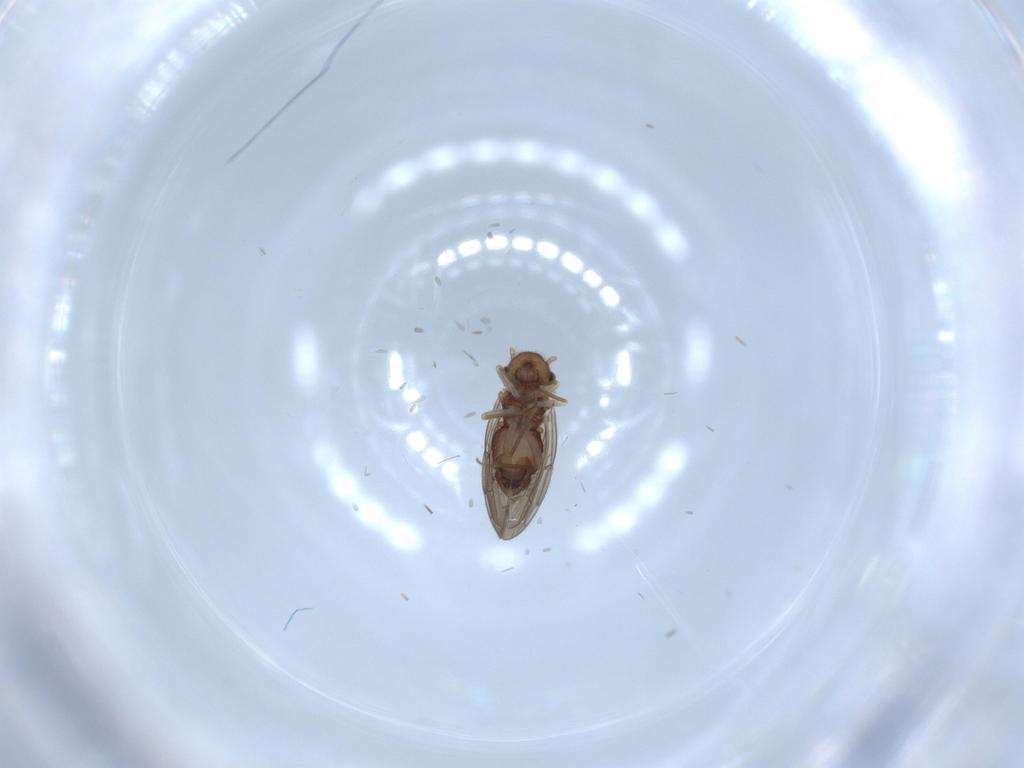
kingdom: Animalia
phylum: Arthropoda
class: Insecta
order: Psocodea
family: Ectopsocidae
